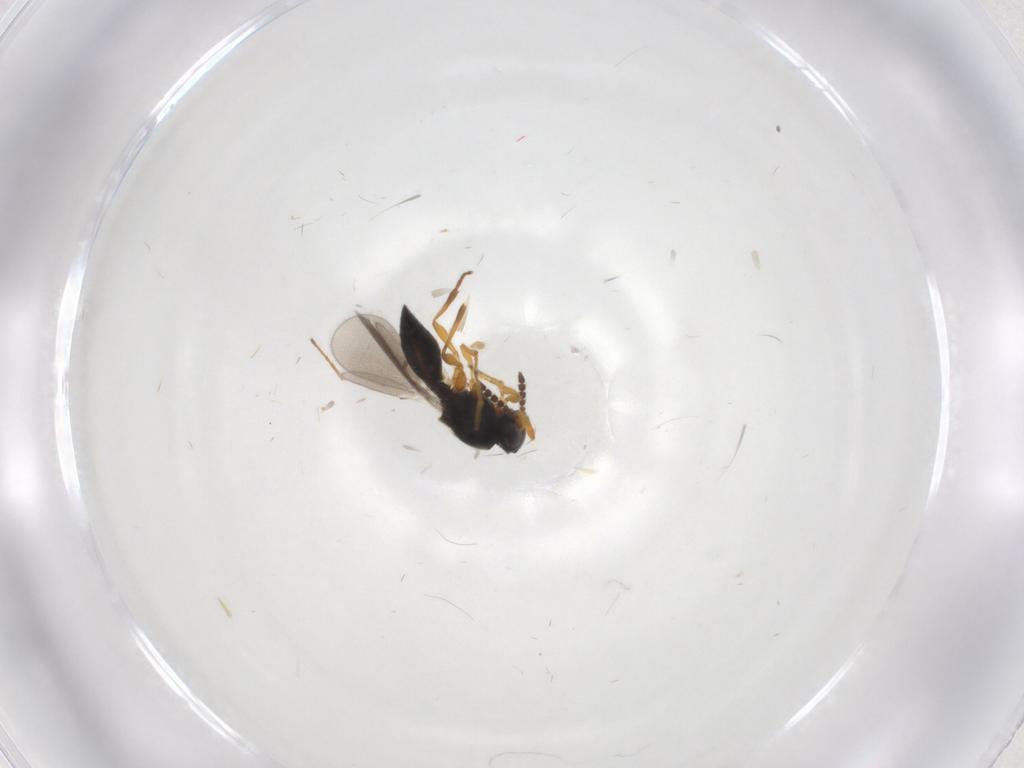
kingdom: Animalia
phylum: Arthropoda
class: Insecta
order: Hymenoptera
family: Platygastridae
